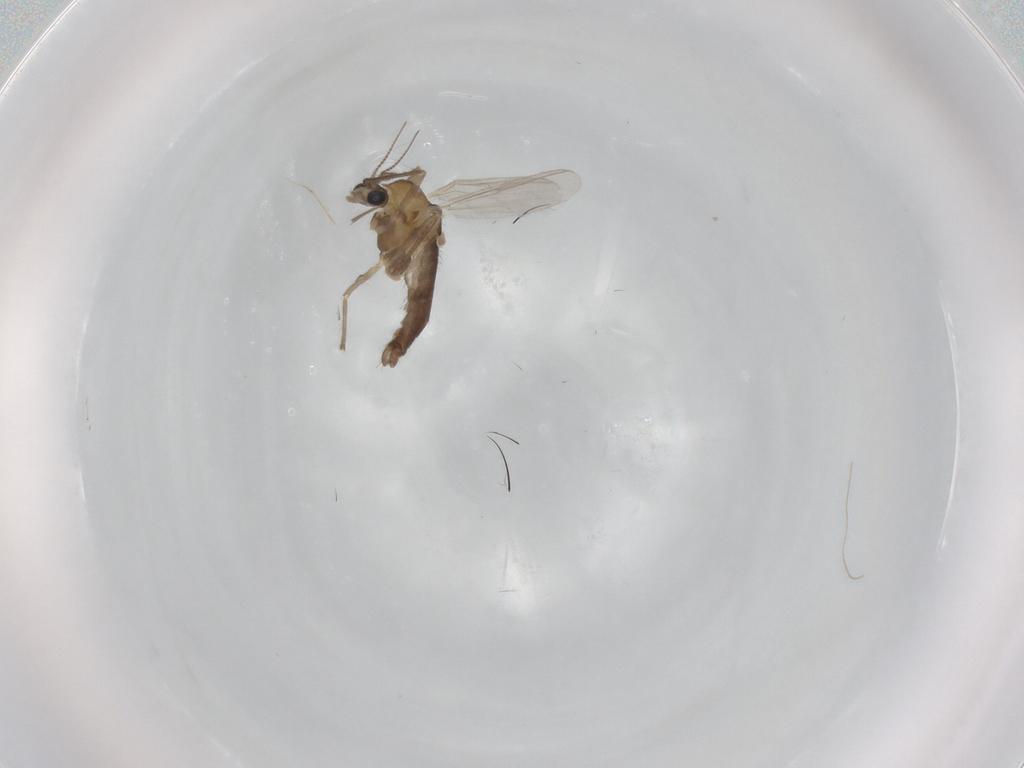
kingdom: Animalia
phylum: Arthropoda
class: Insecta
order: Diptera
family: Chironomidae
